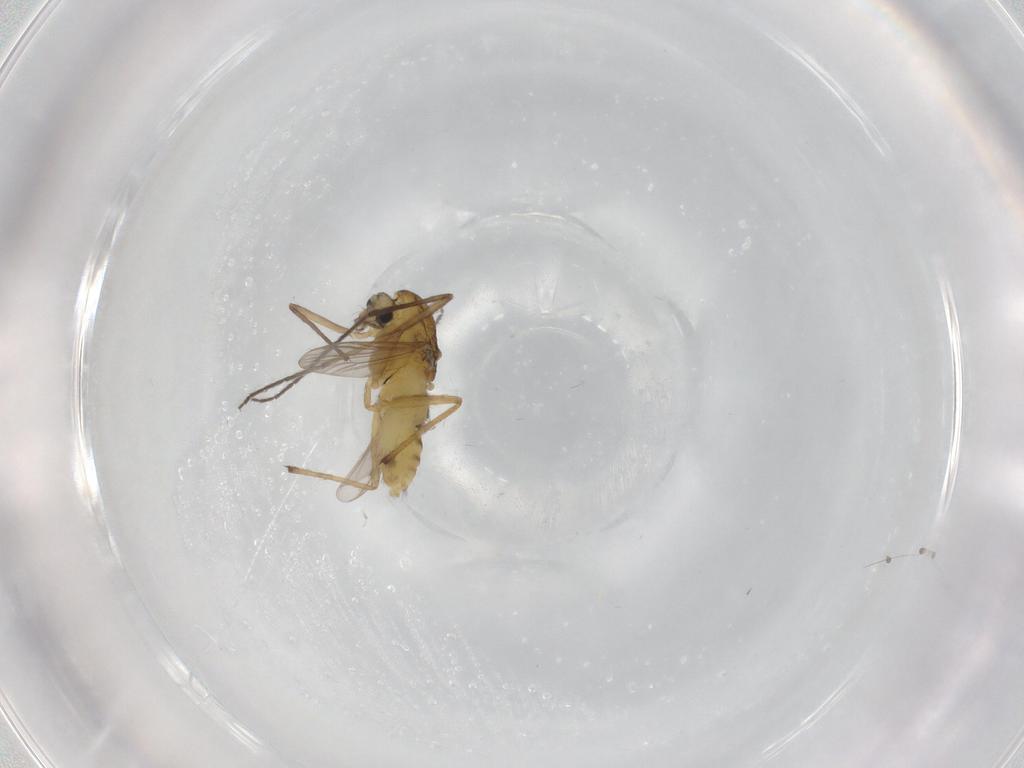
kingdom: Animalia
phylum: Arthropoda
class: Insecta
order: Diptera
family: Chironomidae
